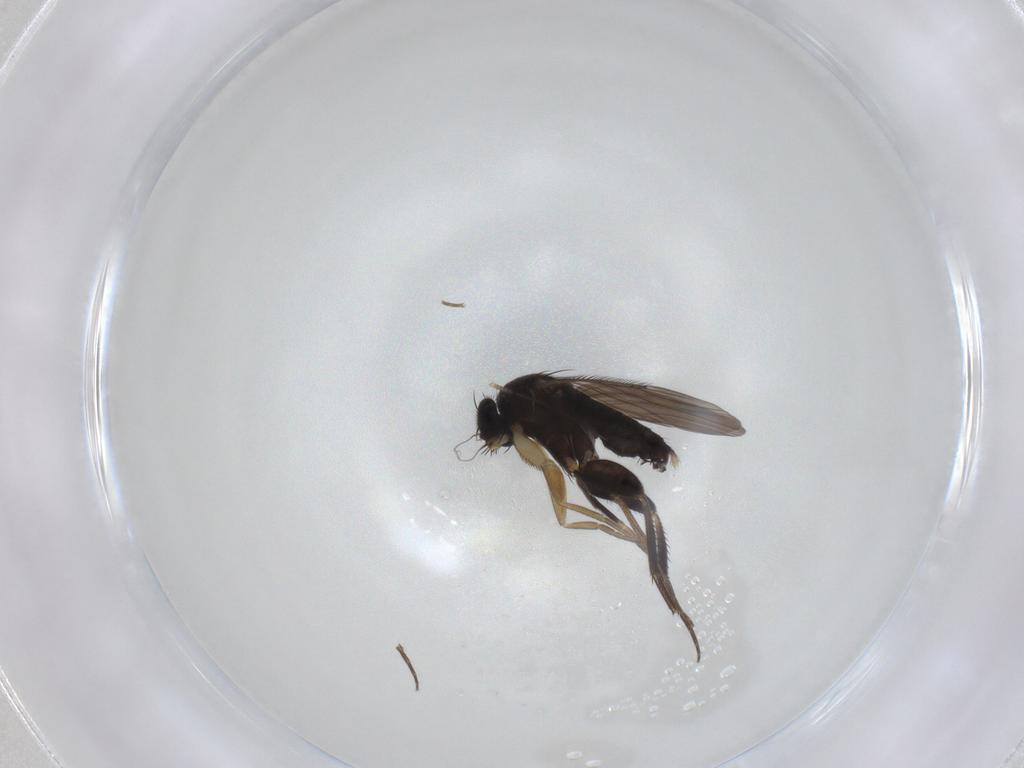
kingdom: Animalia
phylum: Arthropoda
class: Insecta
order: Diptera
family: Phoridae
